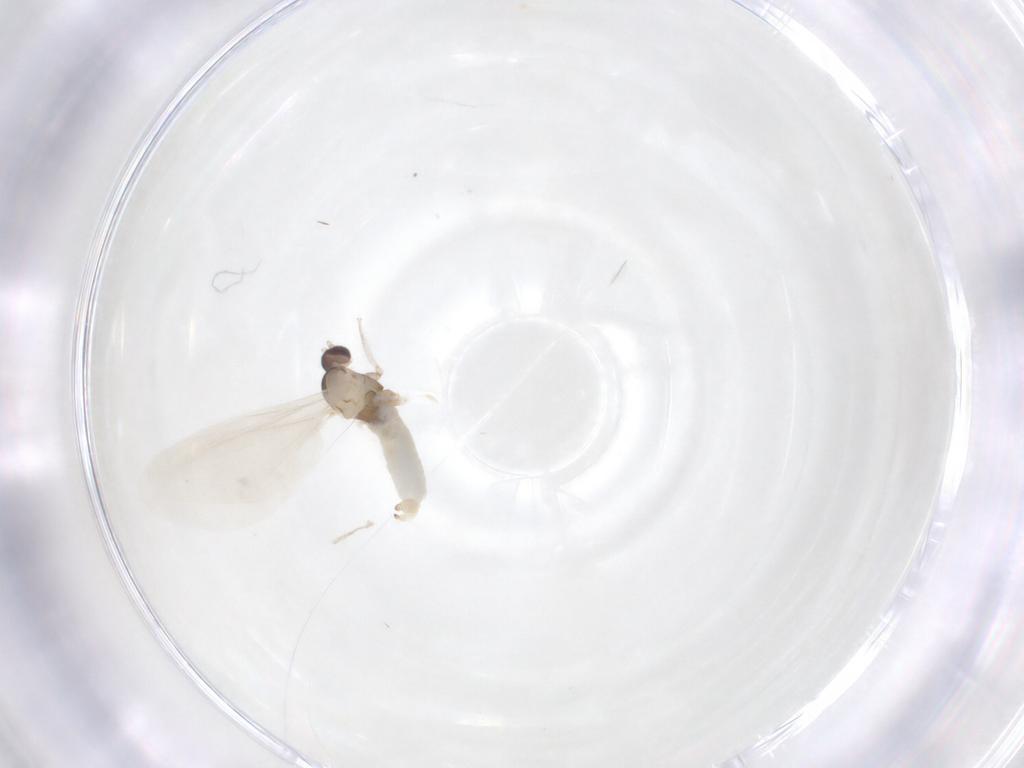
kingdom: Animalia
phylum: Arthropoda
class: Insecta
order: Diptera
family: Cecidomyiidae
